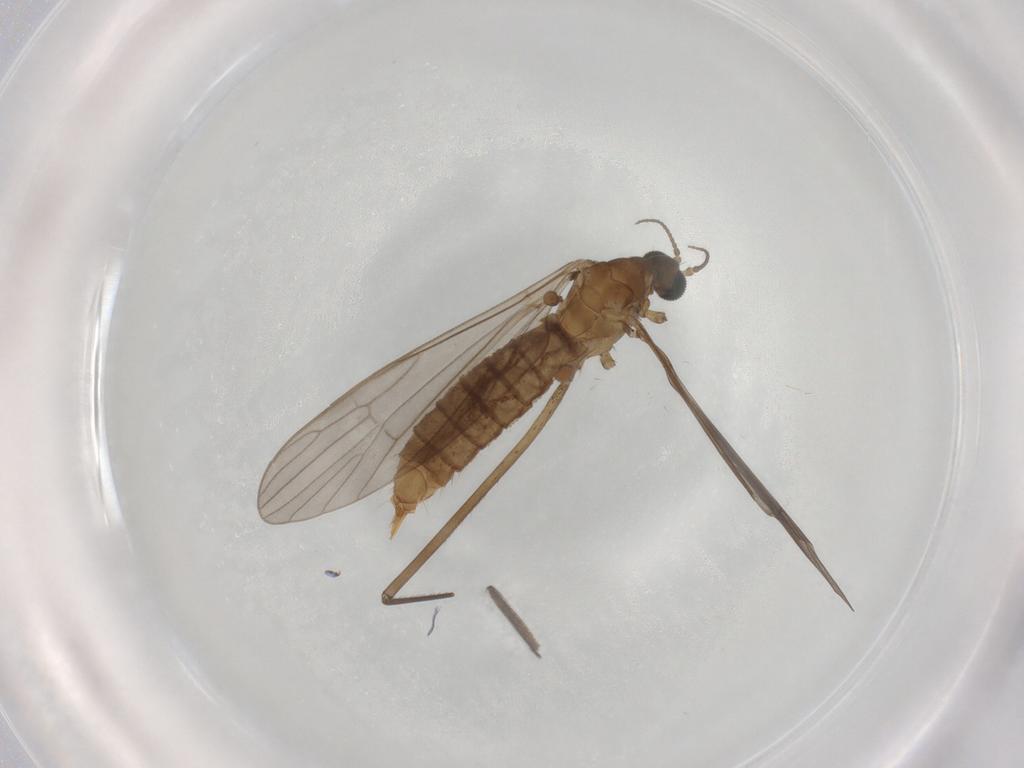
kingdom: Animalia
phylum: Arthropoda
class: Insecta
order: Diptera
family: Limoniidae
